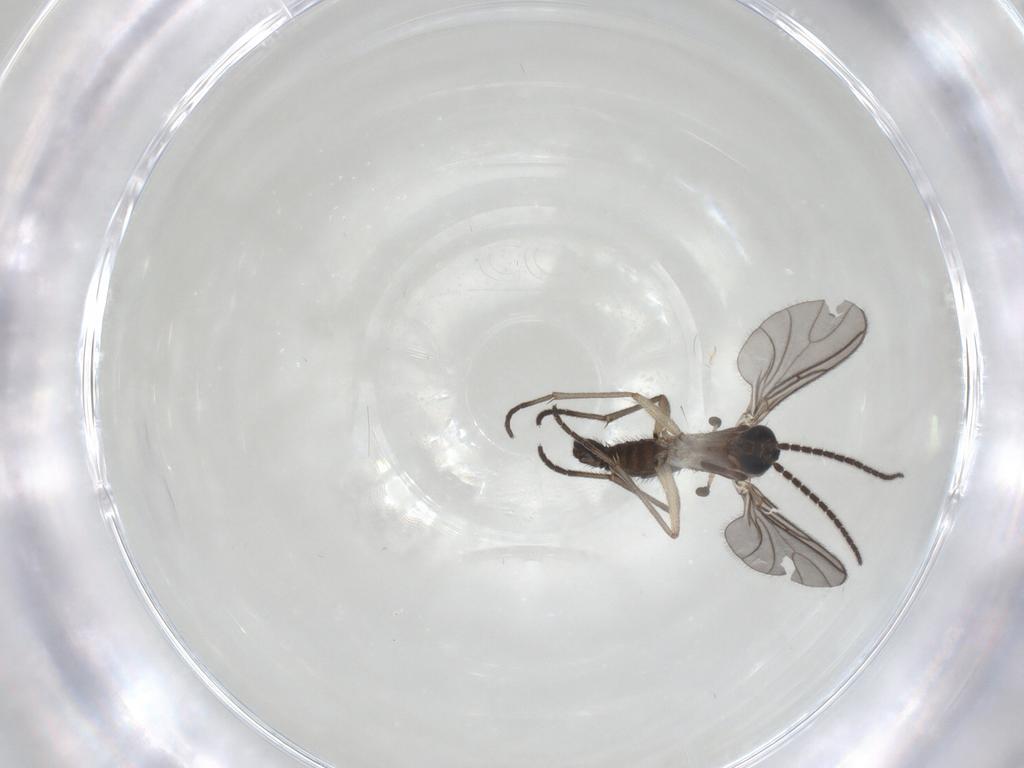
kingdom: Animalia
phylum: Arthropoda
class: Insecta
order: Diptera
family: Sciaridae
